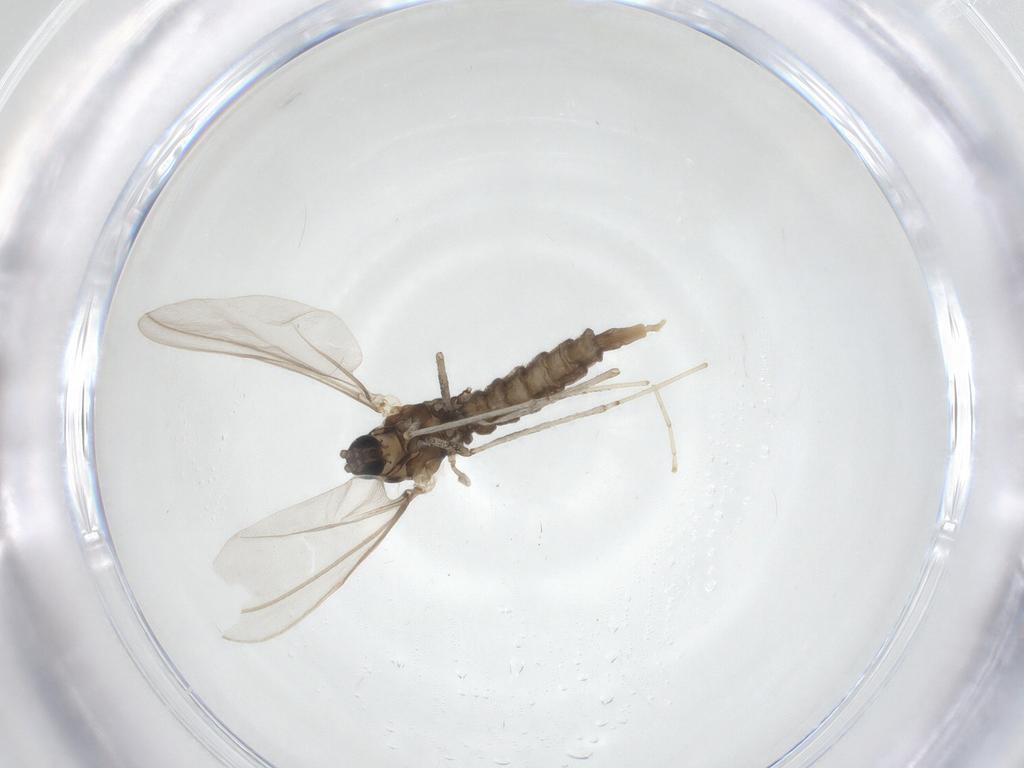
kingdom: Animalia
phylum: Arthropoda
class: Insecta
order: Diptera
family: Cecidomyiidae
